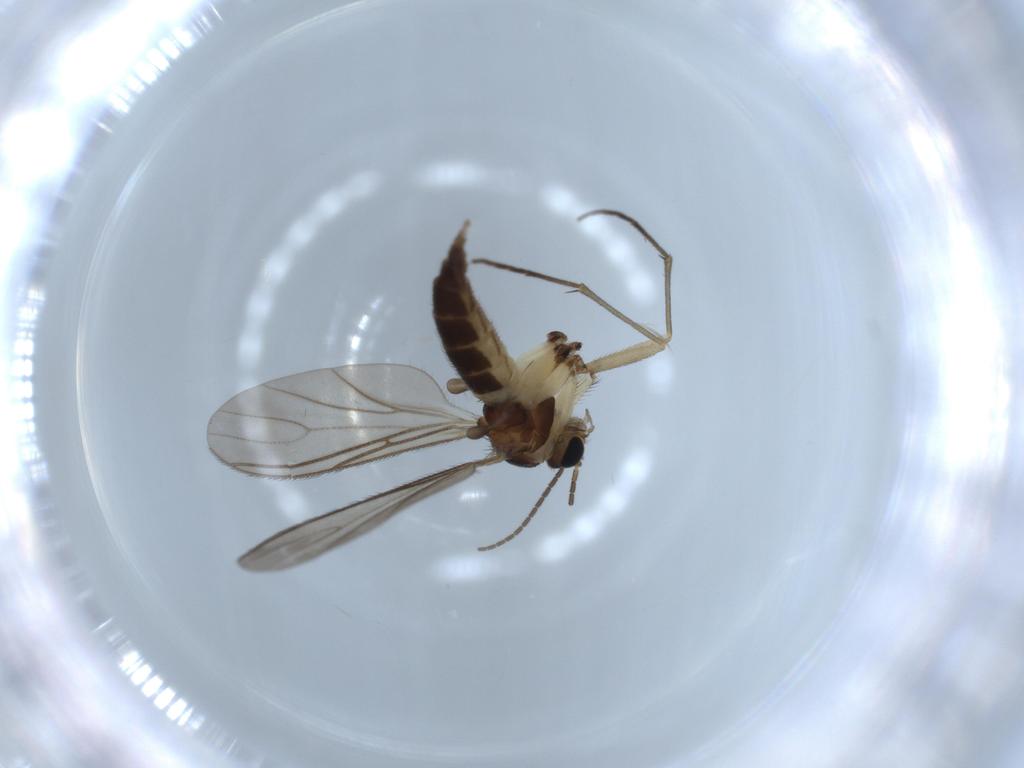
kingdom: Animalia
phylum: Arthropoda
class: Insecta
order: Diptera
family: Sciaridae
